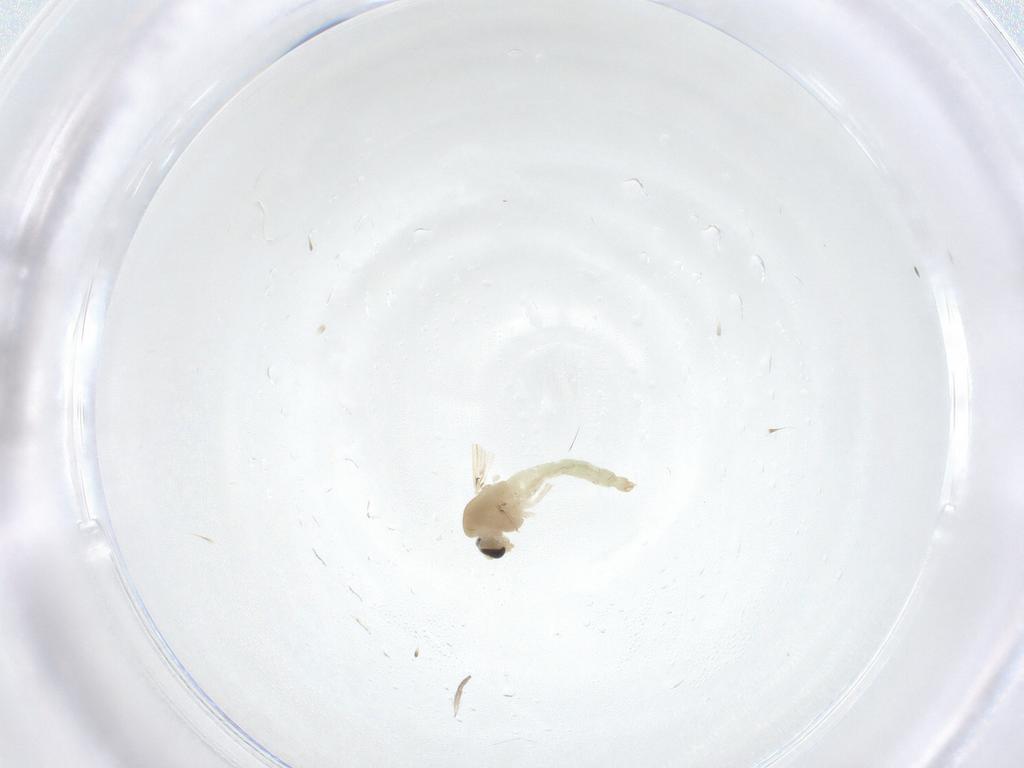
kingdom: Animalia
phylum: Arthropoda
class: Insecta
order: Diptera
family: Chironomidae
